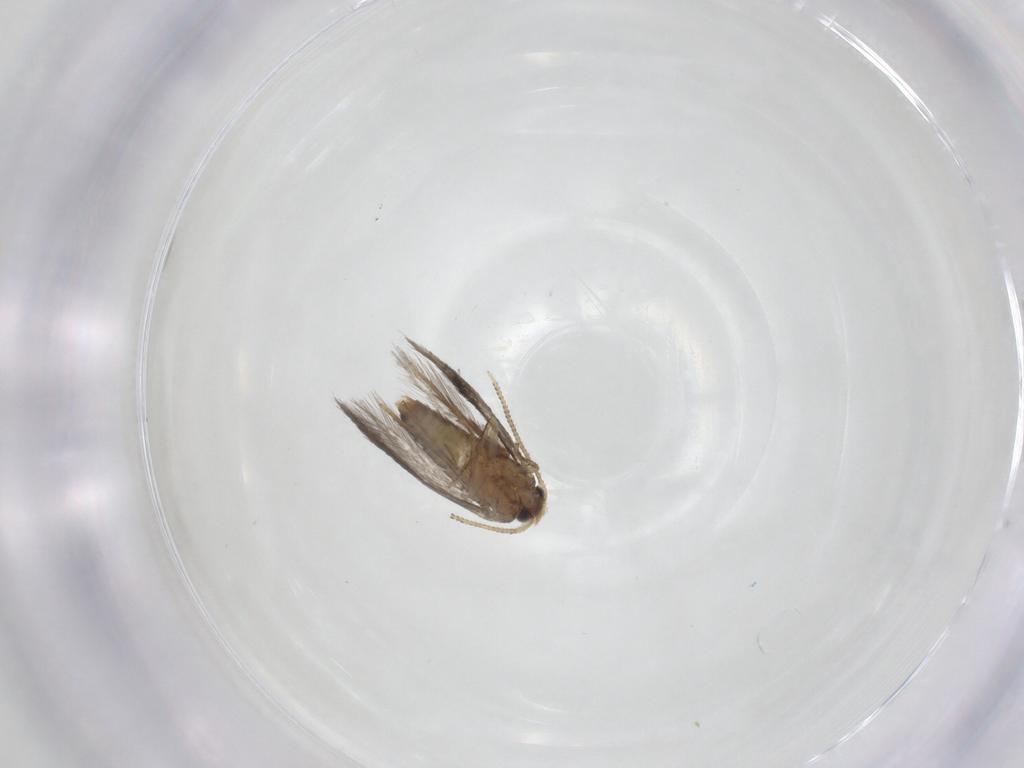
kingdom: Animalia
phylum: Arthropoda
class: Insecta
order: Lepidoptera
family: Nepticulidae
